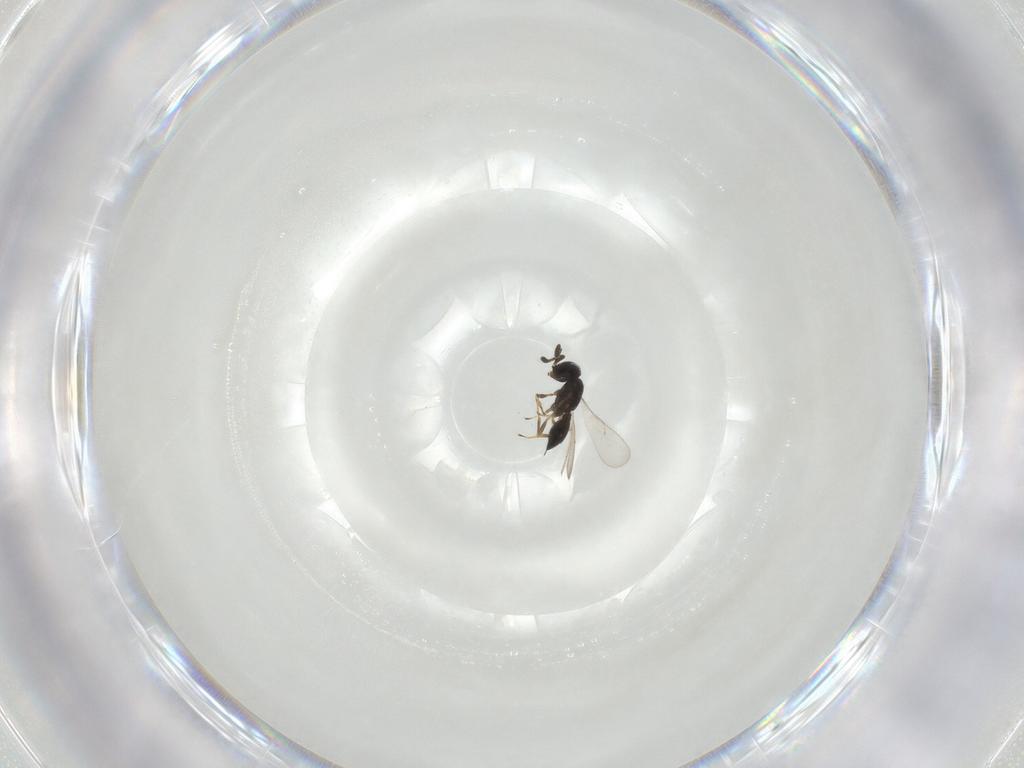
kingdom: Animalia
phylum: Arthropoda
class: Insecta
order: Hymenoptera
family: Scelionidae
